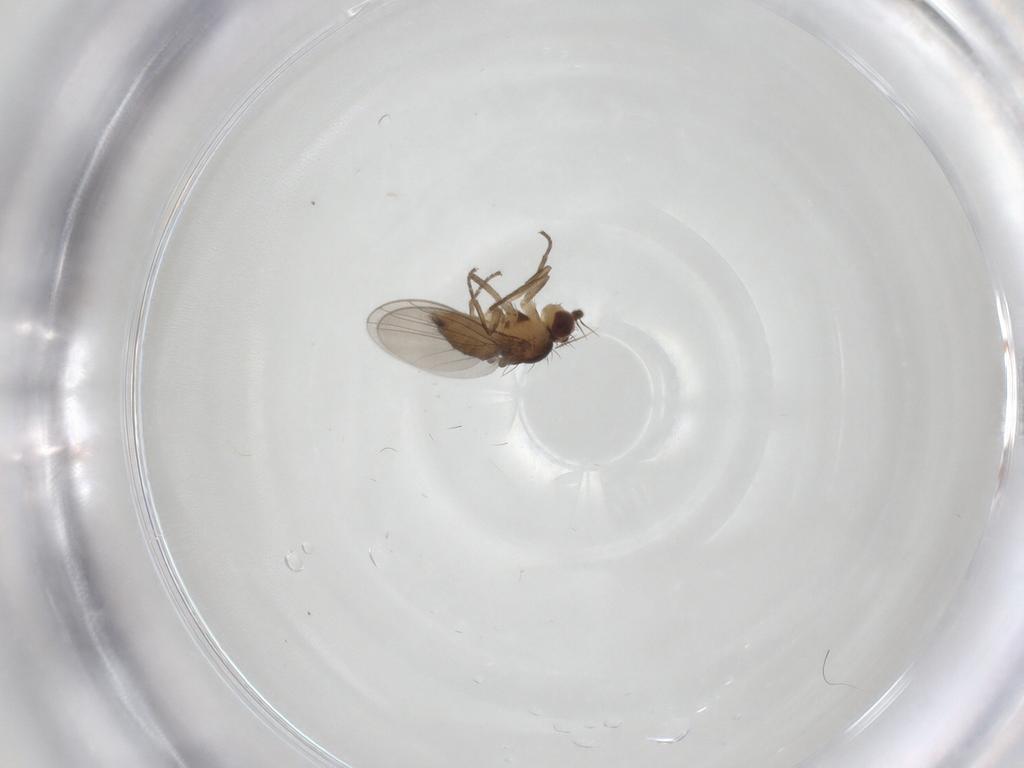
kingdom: Animalia
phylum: Arthropoda
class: Insecta
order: Diptera
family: Agromyzidae
